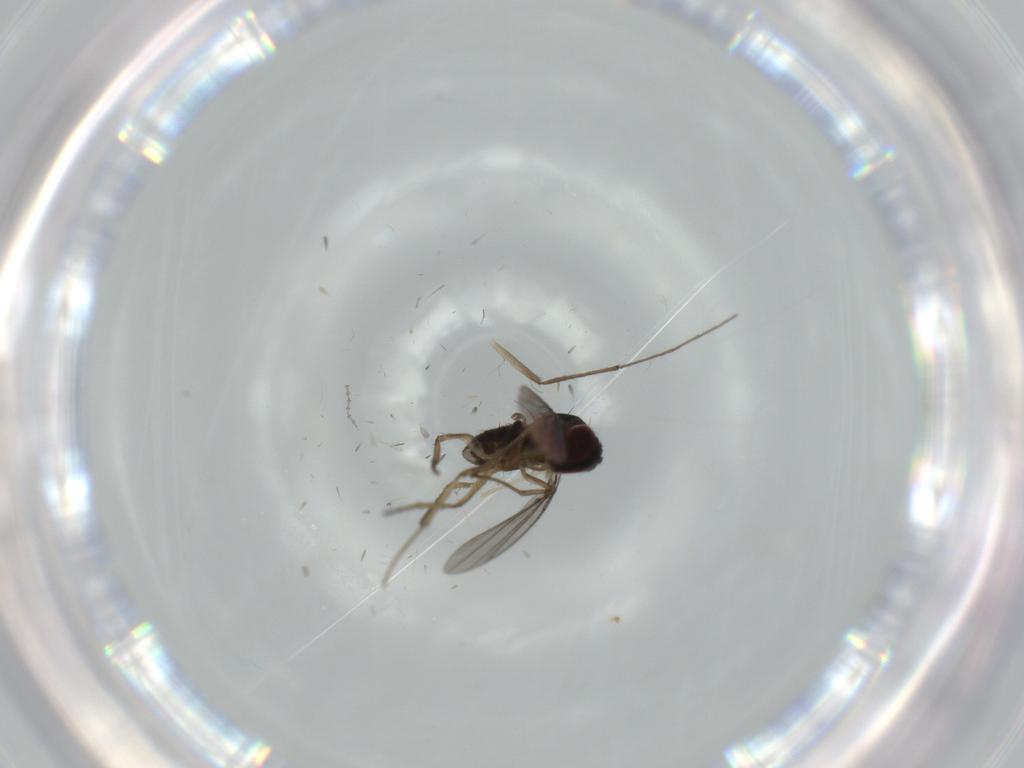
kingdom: Animalia
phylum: Arthropoda
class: Insecta
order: Diptera
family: Dolichopodidae
